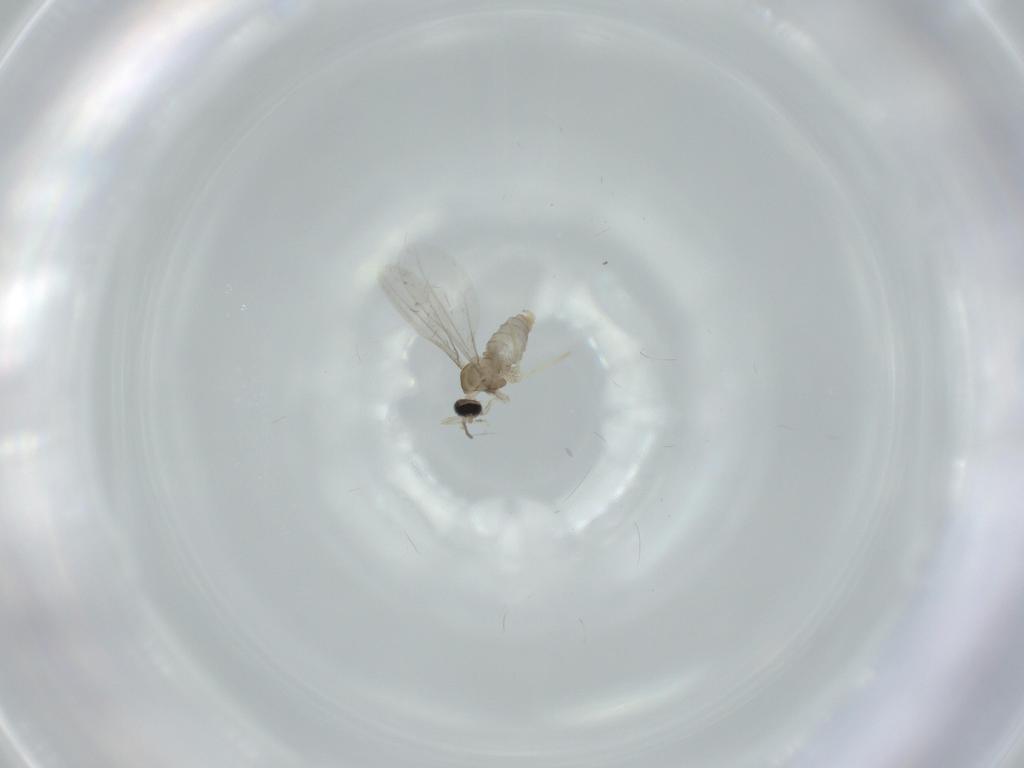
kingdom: Animalia
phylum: Arthropoda
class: Insecta
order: Diptera
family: Cecidomyiidae
